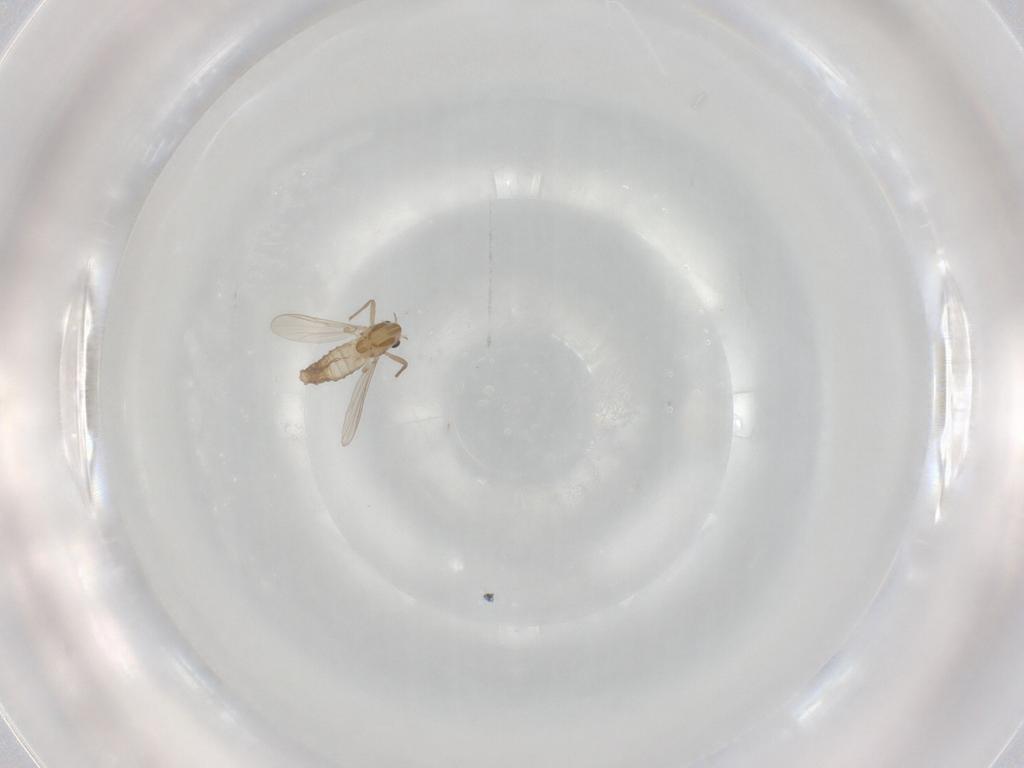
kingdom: Animalia
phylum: Arthropoda
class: Insecta
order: Diptera
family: Chironomidae
